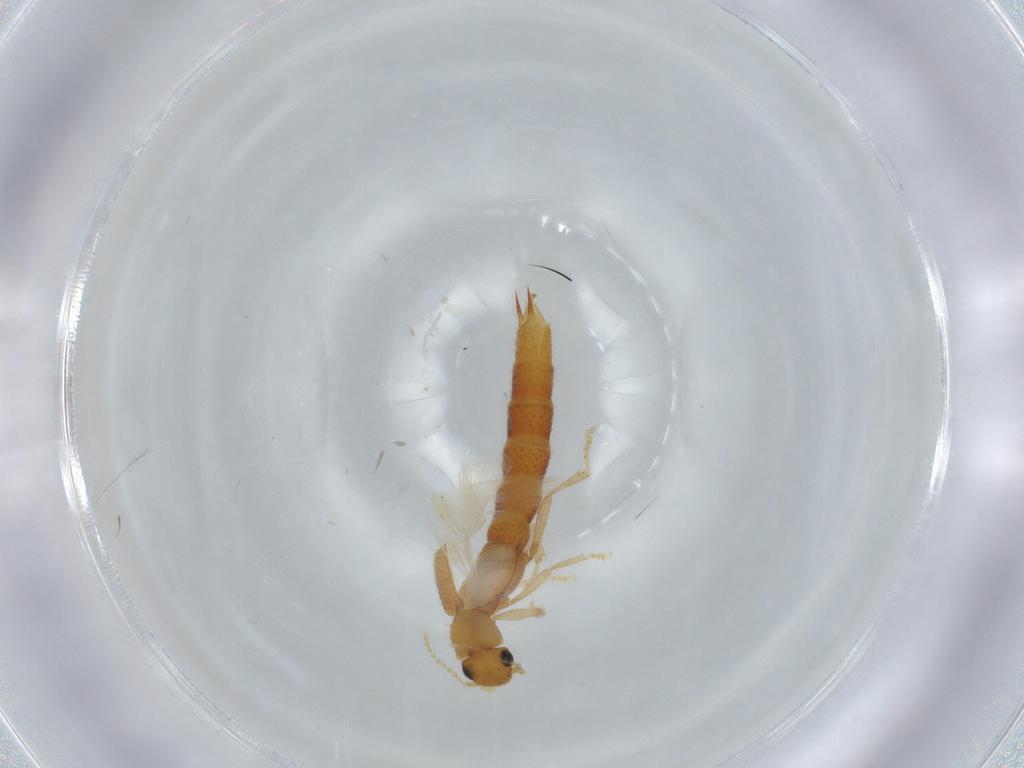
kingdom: Animalia
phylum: Arthropoda
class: Insecta
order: Coleoptera
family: Staphylinidae
